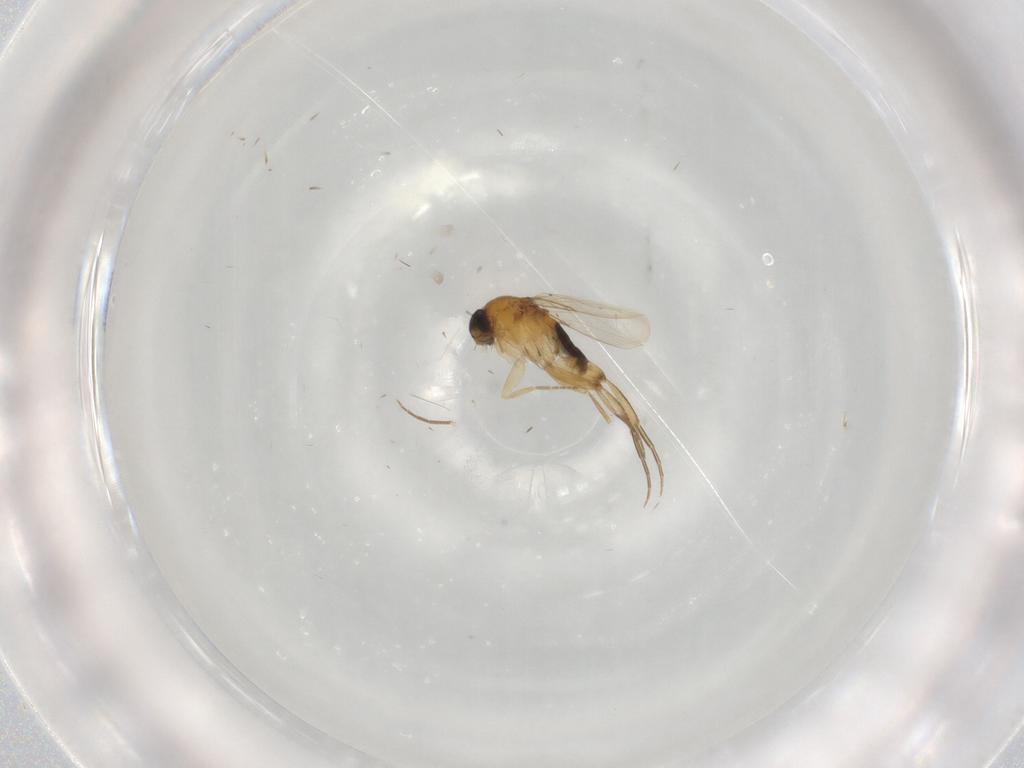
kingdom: Animalia
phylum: Arthropoda
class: Insecta
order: Diptera
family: Phoridae
